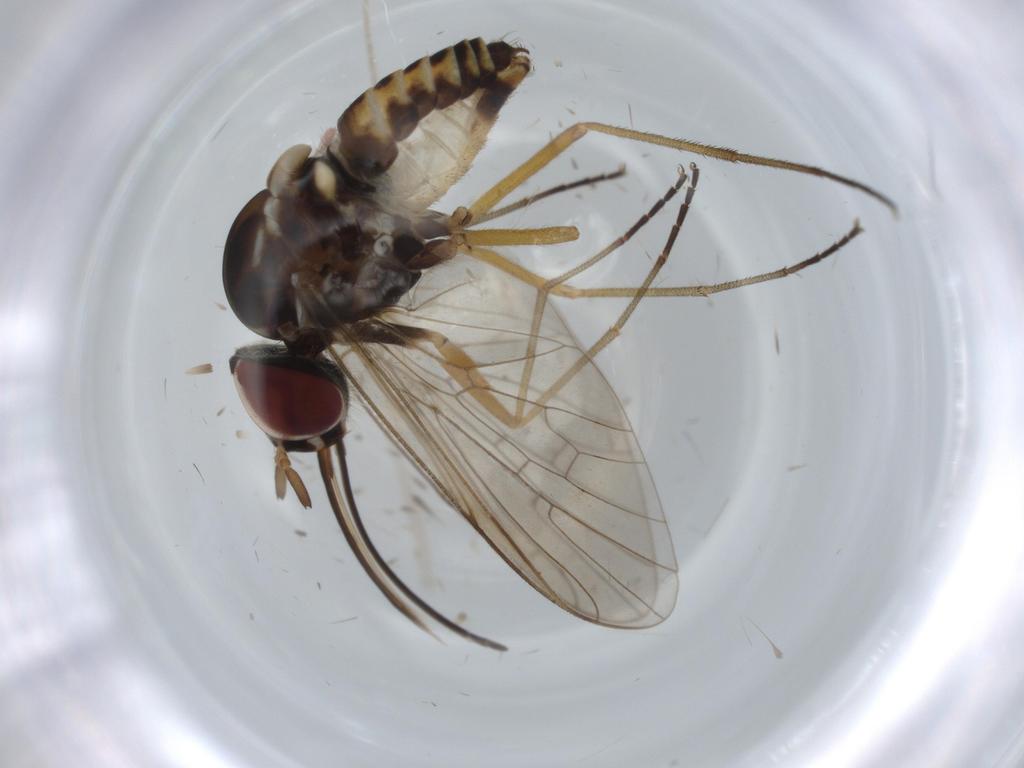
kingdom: Animalia
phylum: Arthropoda
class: Insecta
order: Diptera
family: Bombyliidae
